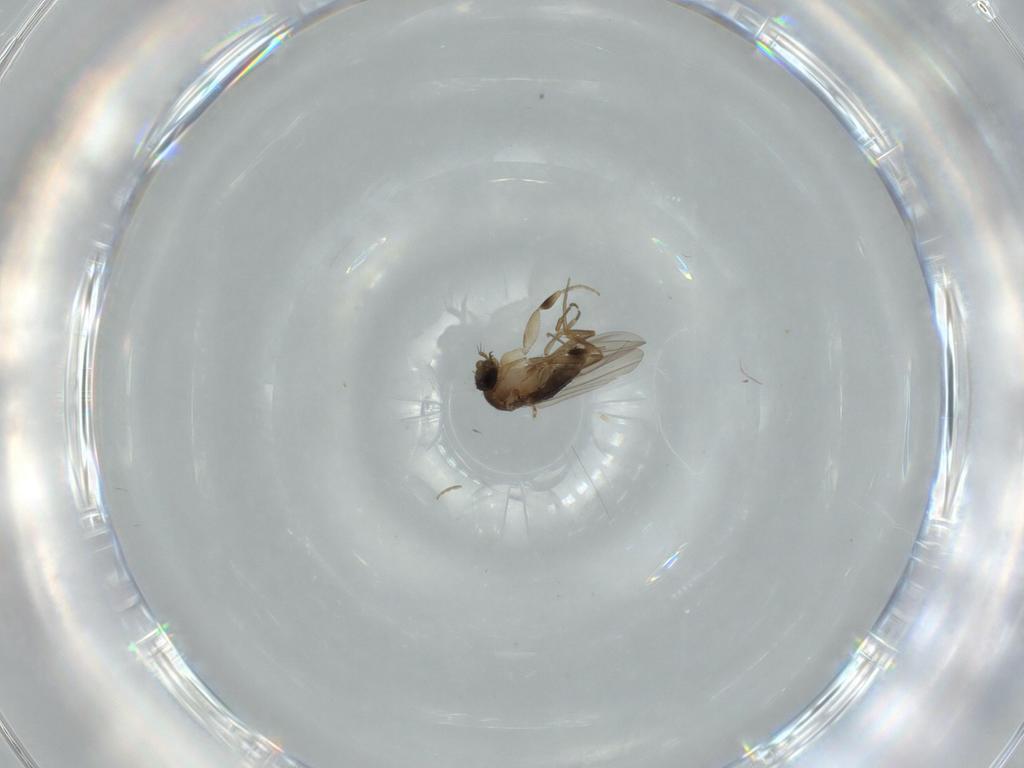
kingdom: Animalia
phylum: Arthropoda
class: Insecta
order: Diptera
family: Phoridae
